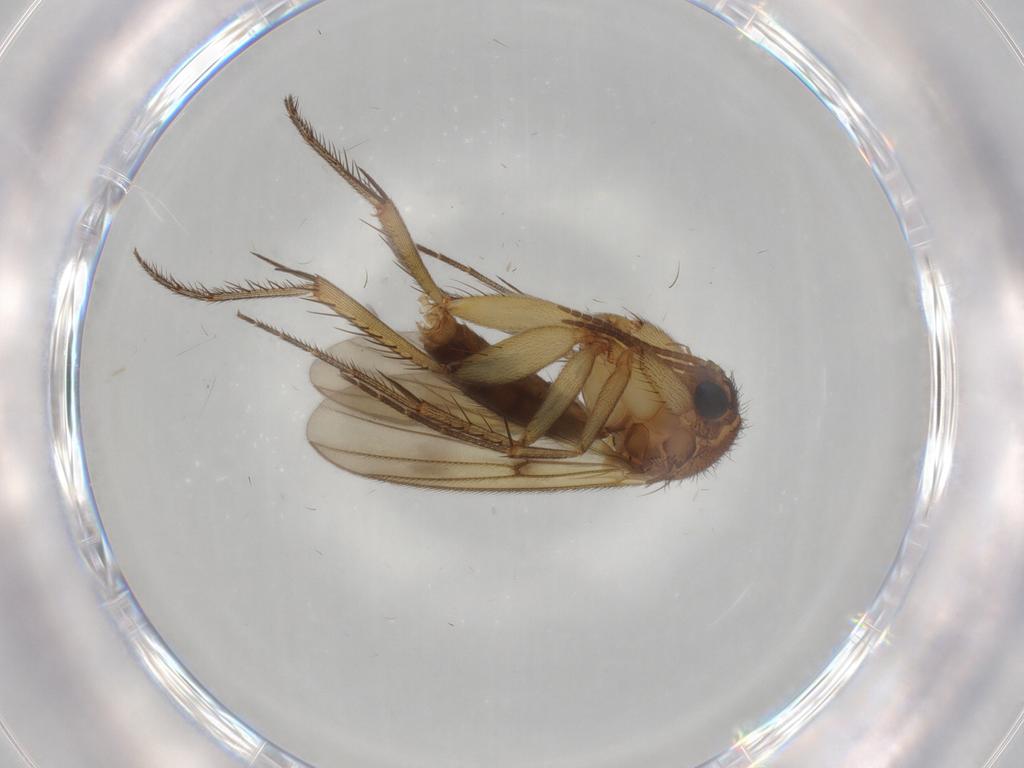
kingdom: Animalia
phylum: Arthropoda
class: Insecta
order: Diptera
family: Mycetophilidae
